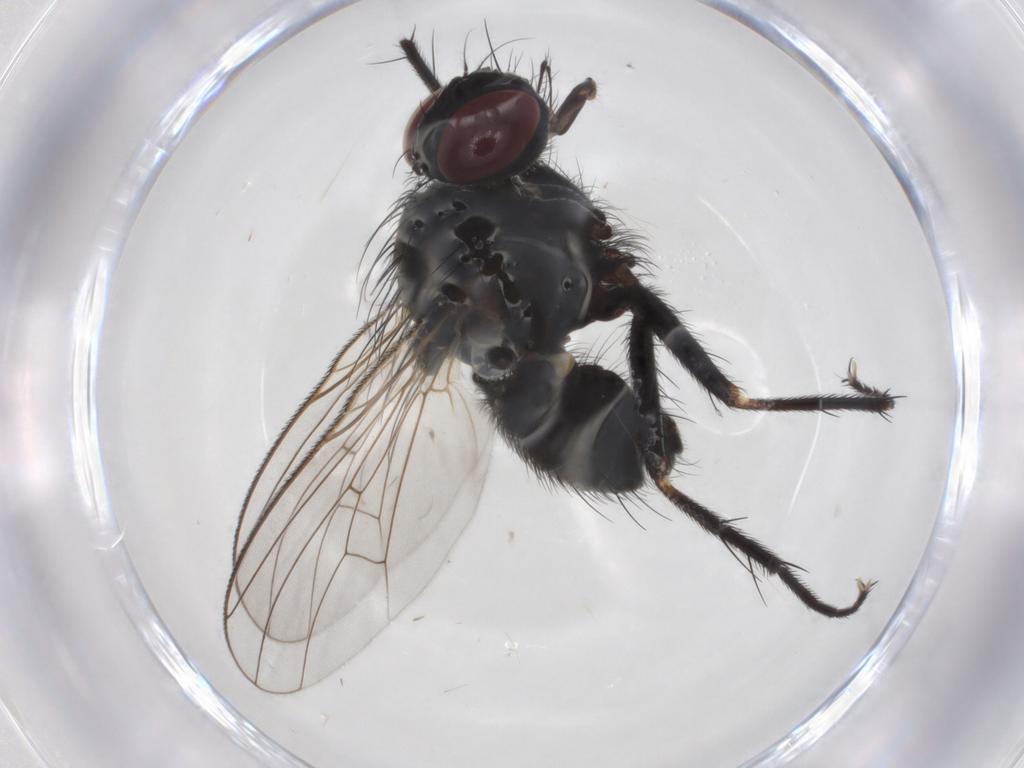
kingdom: Animalia
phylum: Arthropoda
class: Insecta
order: Diptera
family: Muscidae
